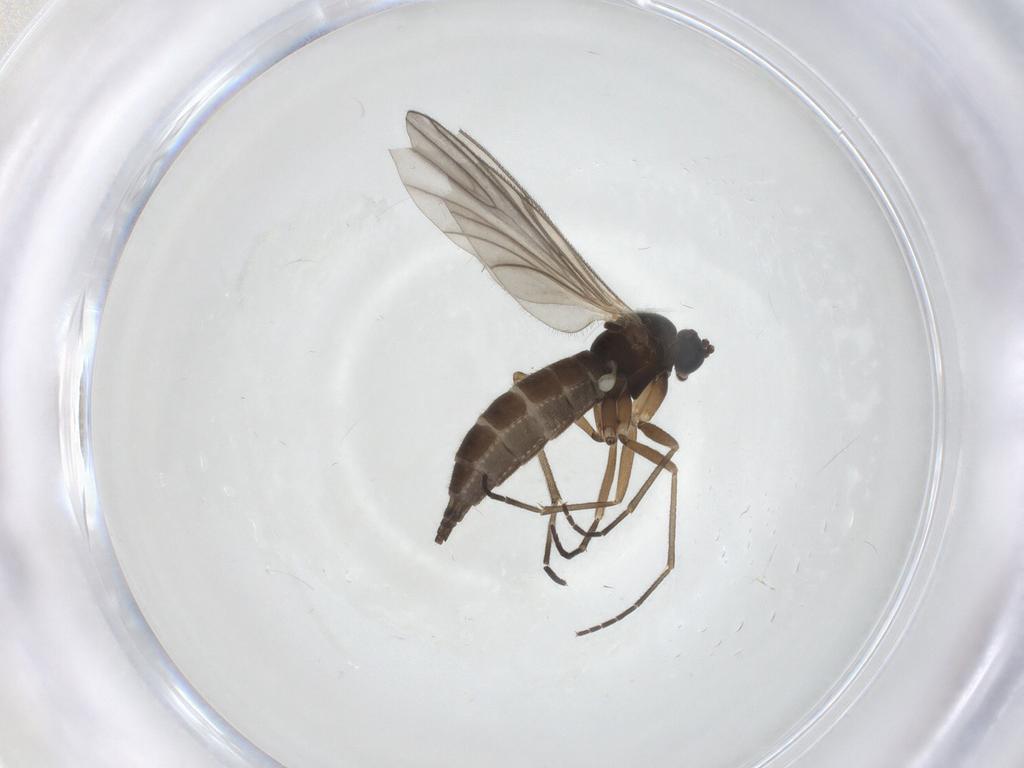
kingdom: Animalia
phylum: Arthropoda
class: Insecta
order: Diptera
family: Sciaridae
